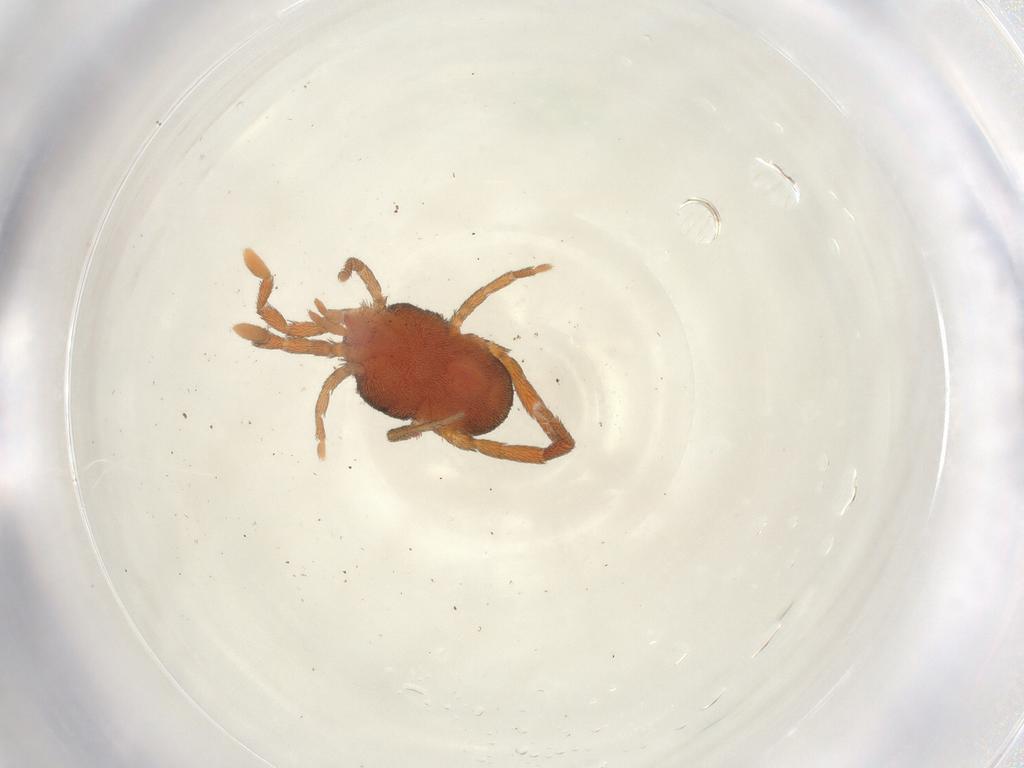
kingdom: Animalia
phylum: Arthropoda
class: Arachnida
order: Trombidiformes
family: Erythraeidae
